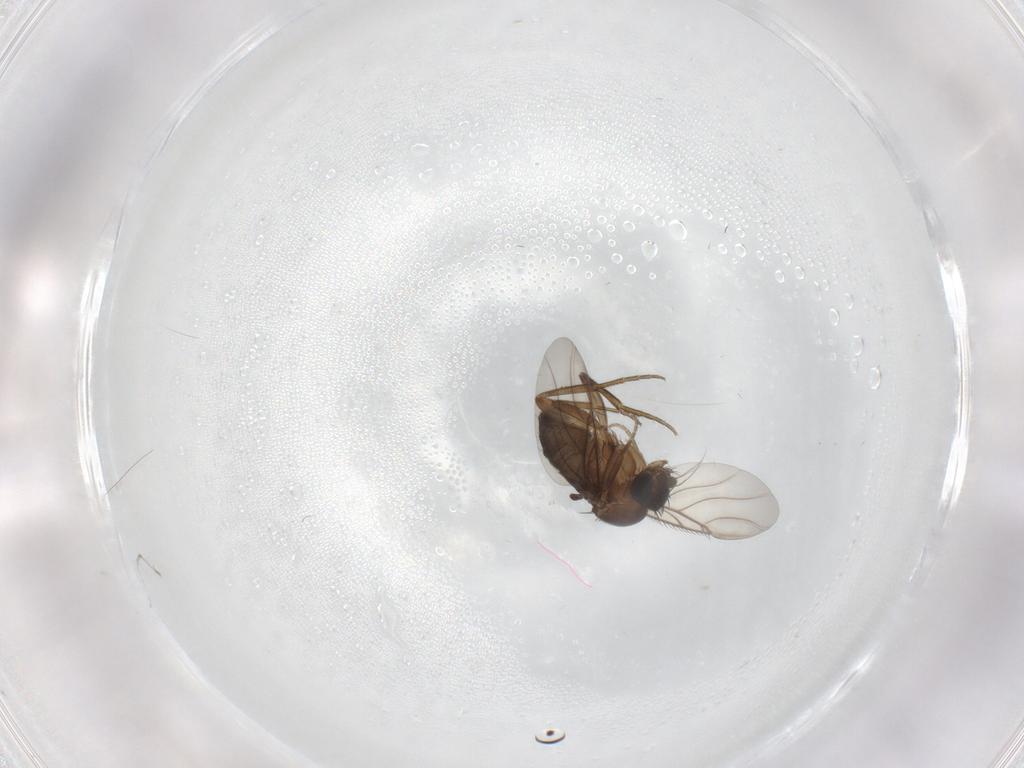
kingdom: Animalia
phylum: Arthropoda
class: Insecta
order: Diptera
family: Phoridae
